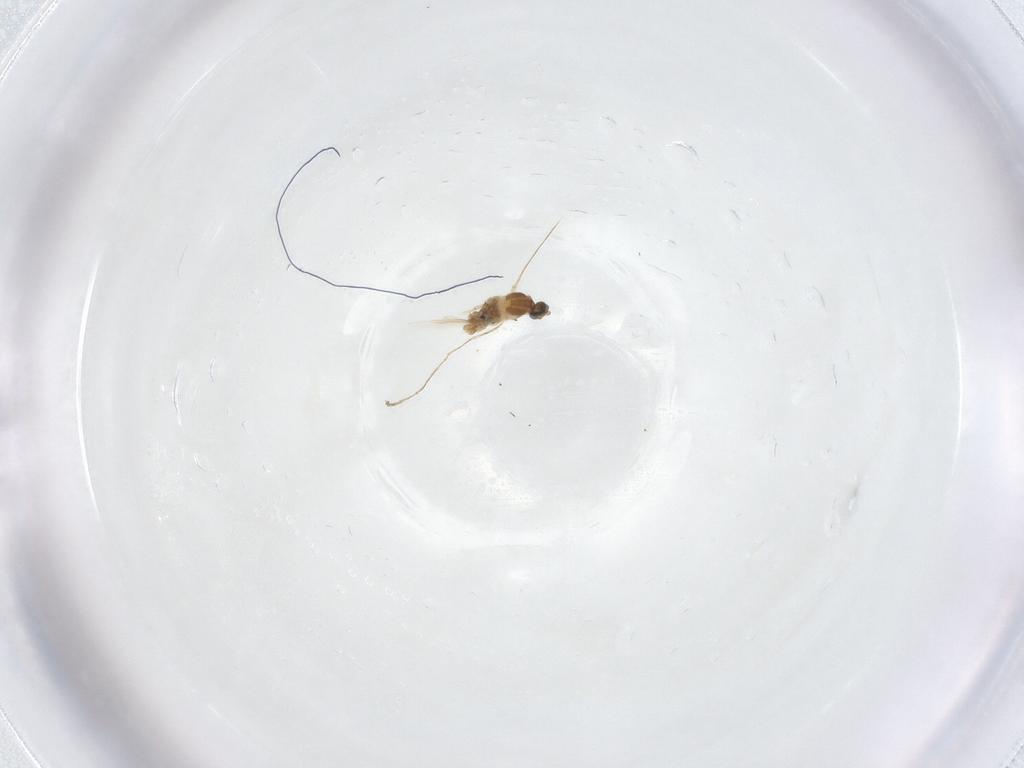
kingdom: Animalia
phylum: Arthropoda
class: Insecta
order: Diptera
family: Cecidomyiidae
